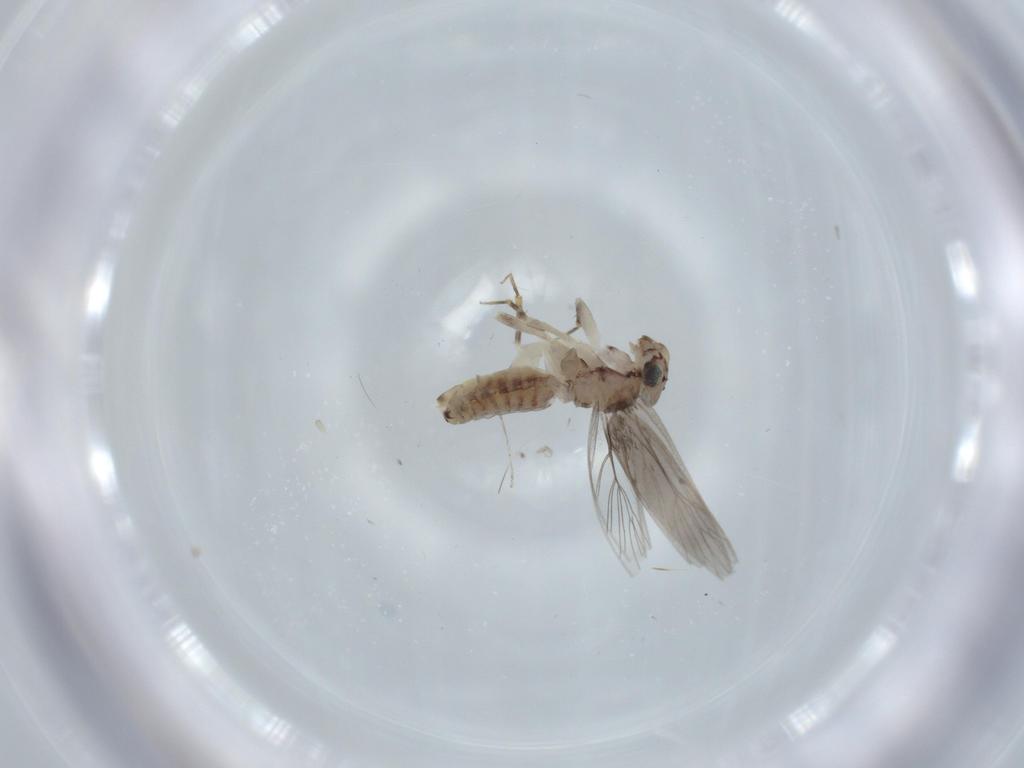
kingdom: Animalia
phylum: Arthropoda
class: Insecta
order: Psocodea
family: Lepidopsocidae
